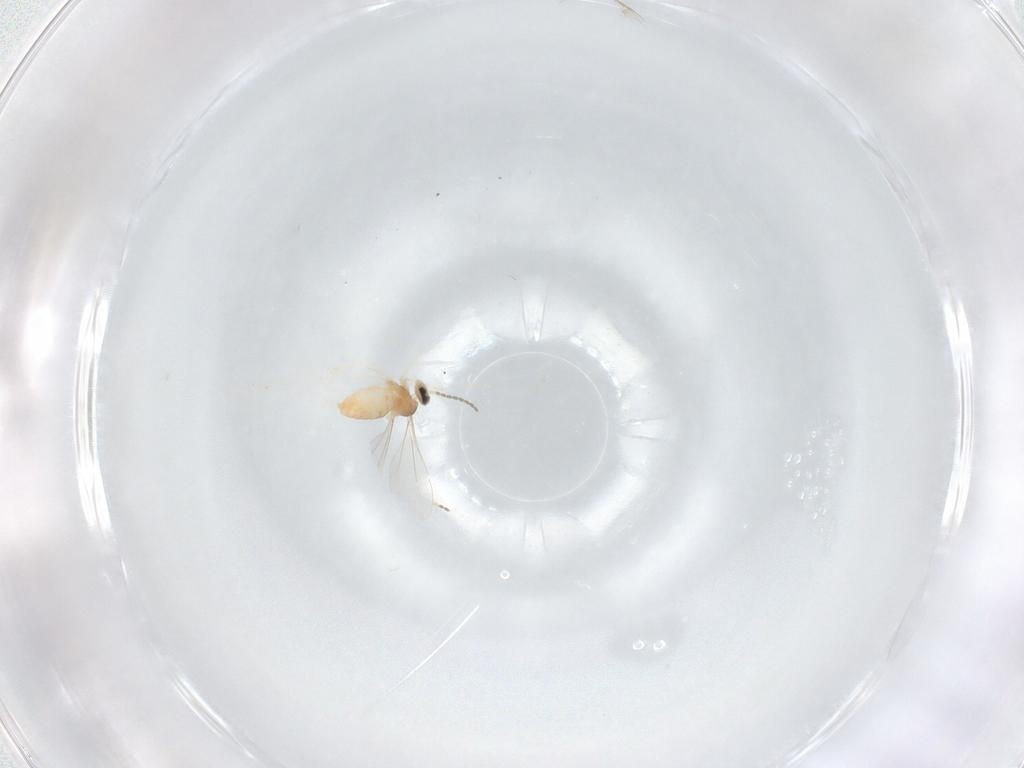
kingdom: Animalia
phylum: Arthropoda
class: Insecta
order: Diptera
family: Cecidomyiidae
